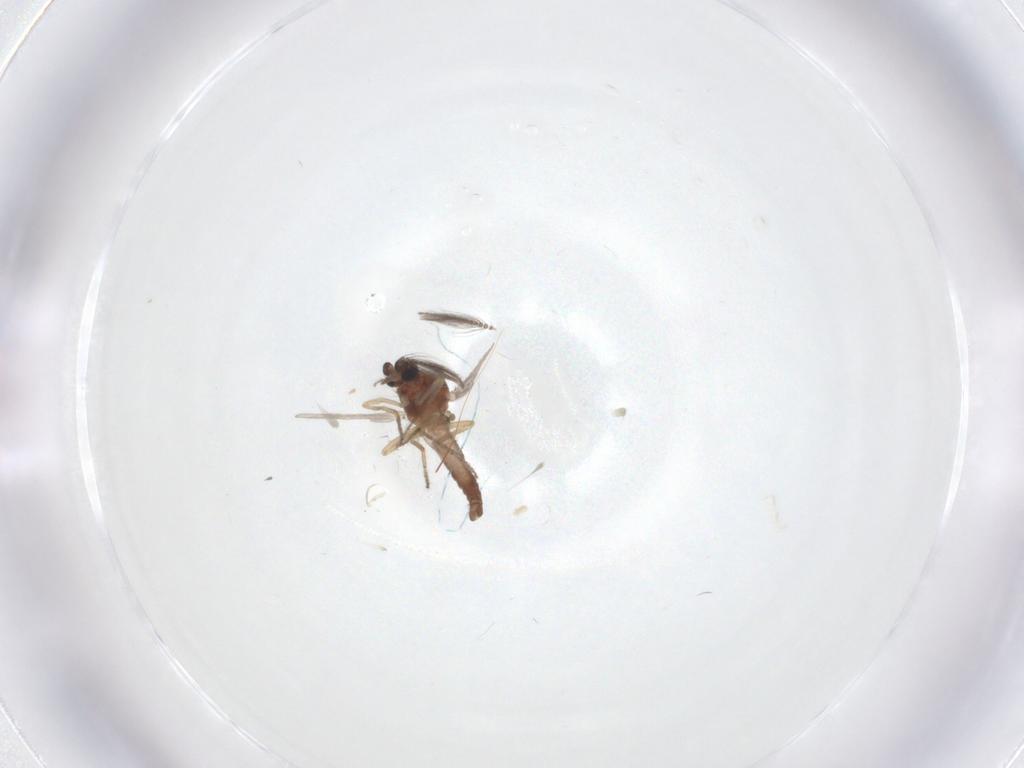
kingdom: Animalia
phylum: Arthropoda
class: Insecta
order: Diptera
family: Ceratopogonidae
